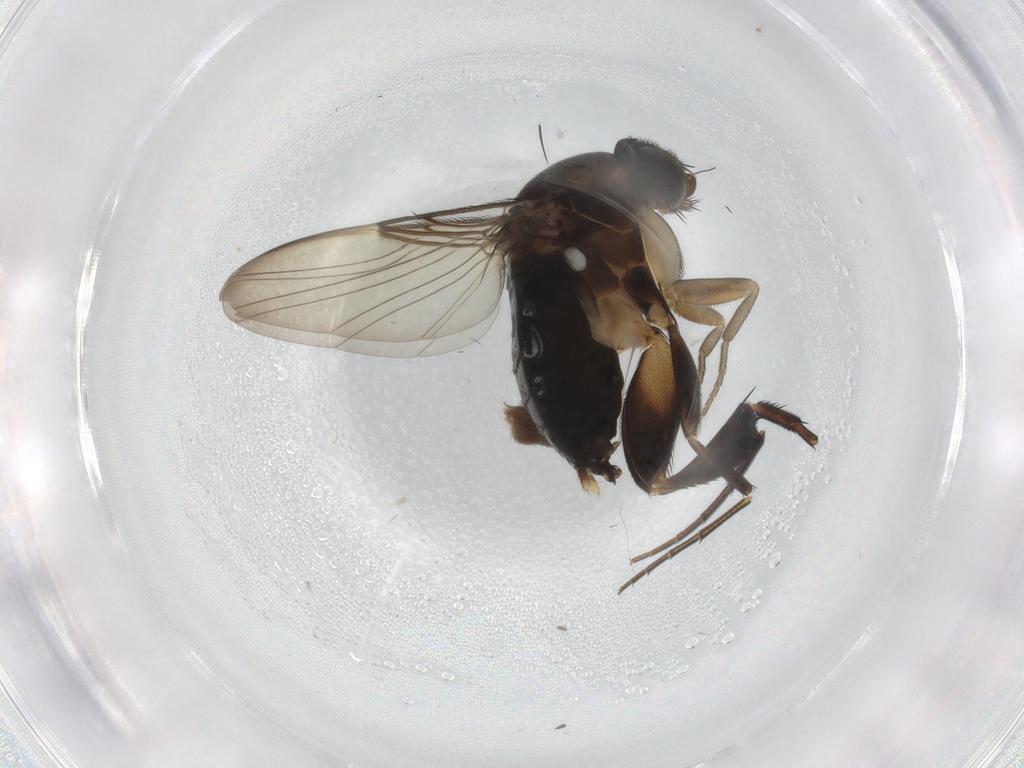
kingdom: Animalia
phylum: Arthropoda
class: Insecta
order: Diptera
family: Phoridae
